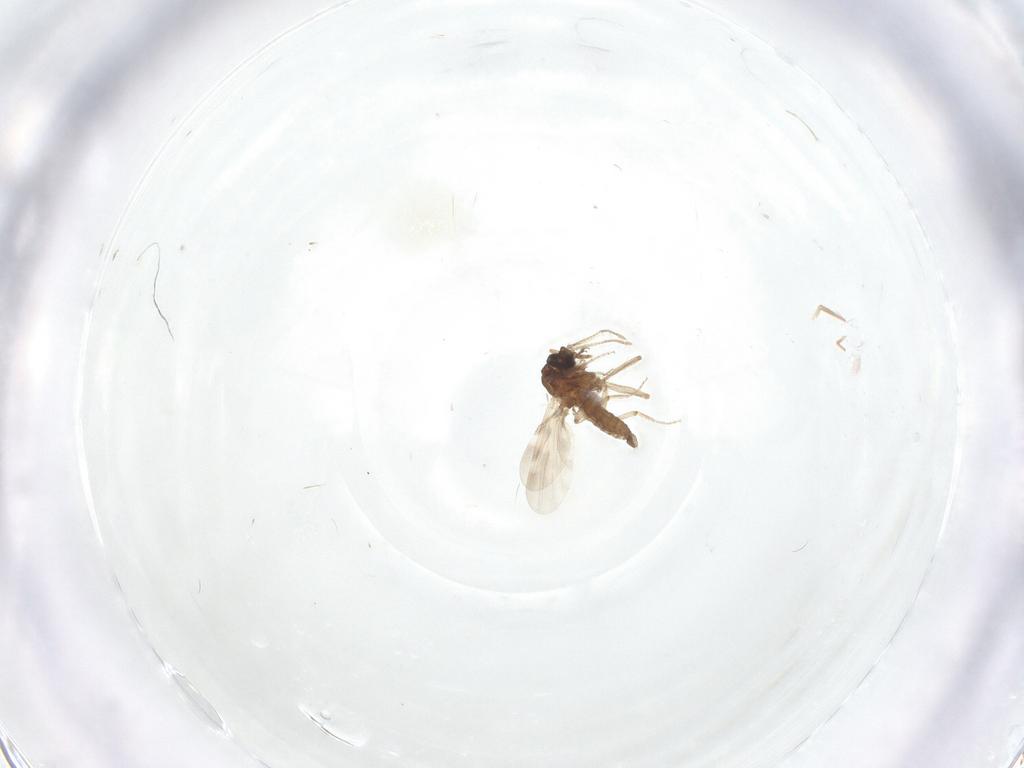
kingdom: Animalia
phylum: Arthropoda
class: Insecta
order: Diptera
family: Ceratopogonidae
